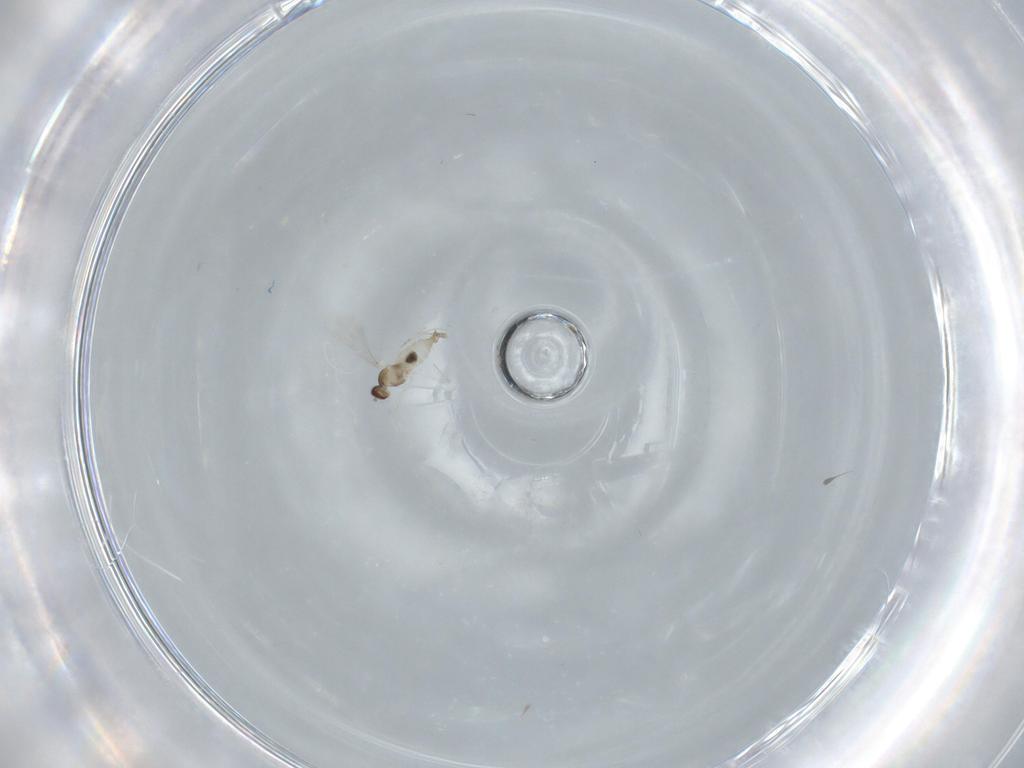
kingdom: Animalia
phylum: Arthropoda
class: Insecta
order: Diptera
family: Cecidomyiidae
